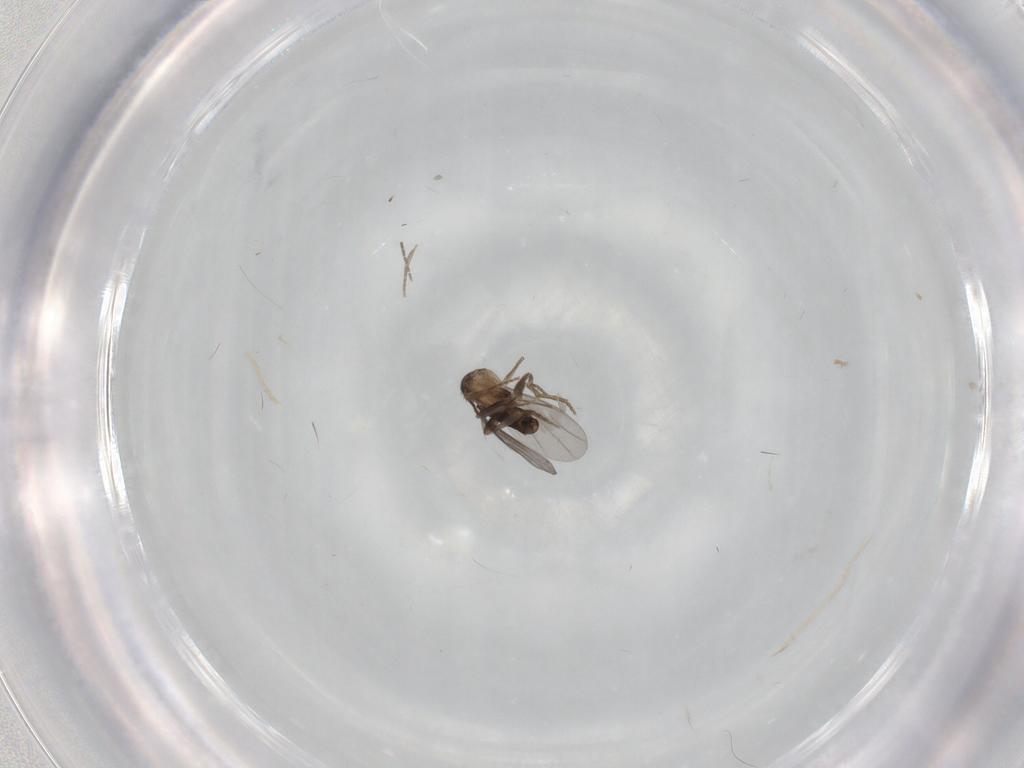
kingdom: Animalia
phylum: Arthropoda
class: Insecta
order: Diptera
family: Sciaridae
